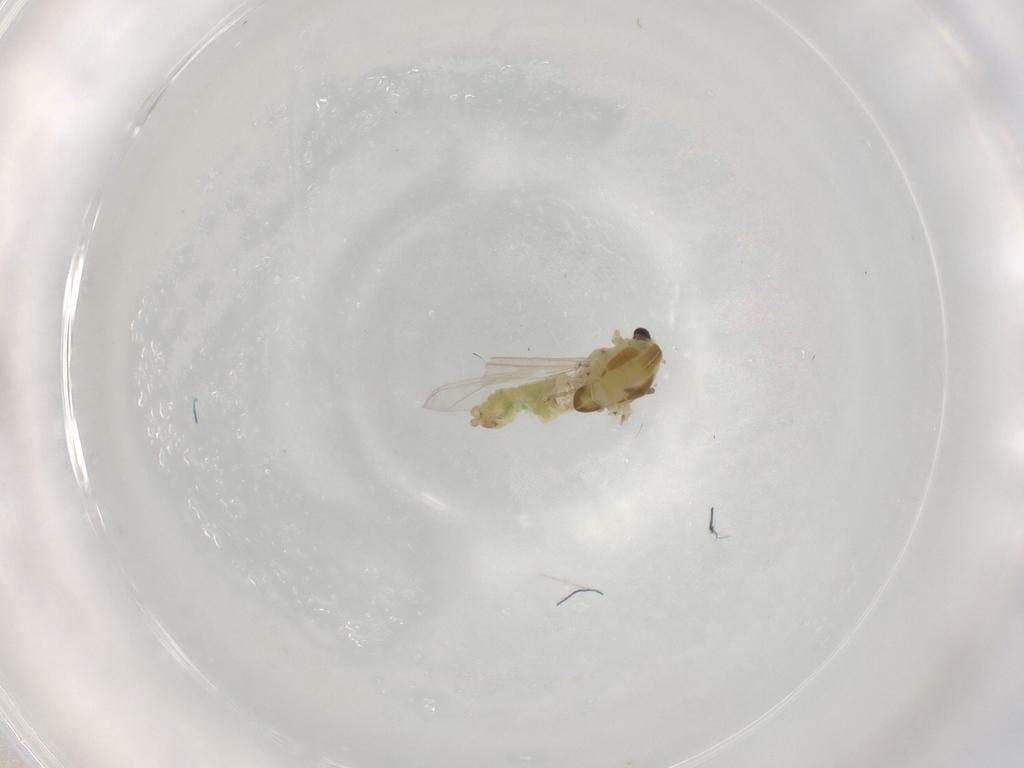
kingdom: Animalia
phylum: Arthropoda
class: Insecta
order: Diptera
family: Chironomidae
